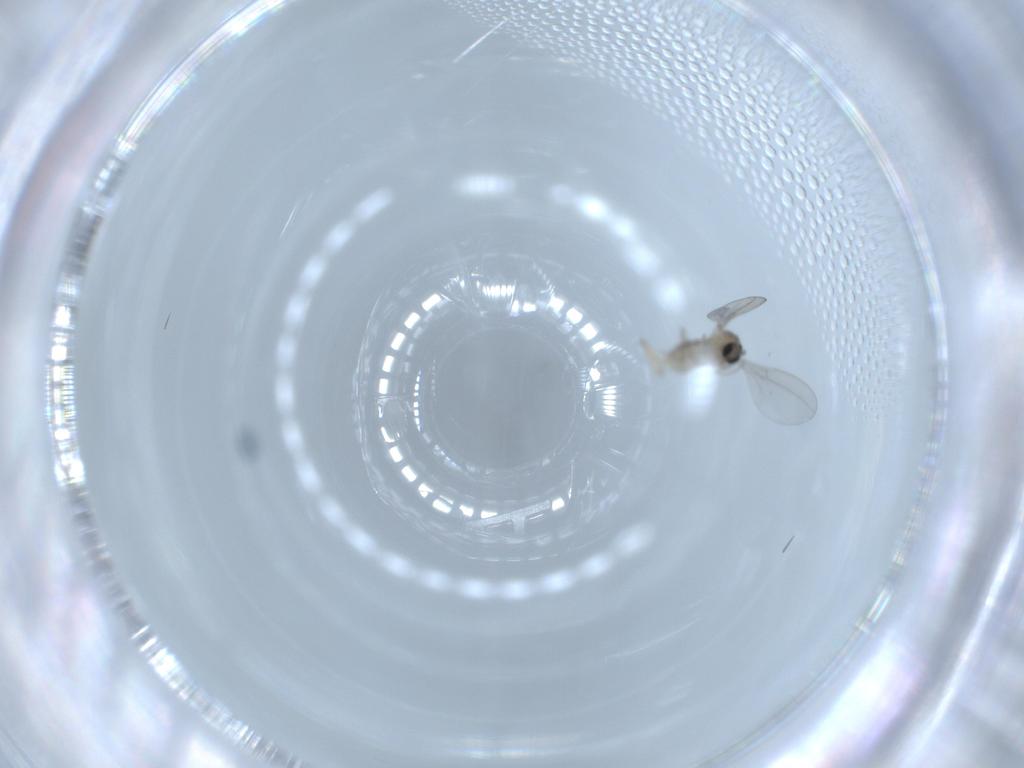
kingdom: Animalia
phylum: Arthropoda
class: Insecta
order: Diptera
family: Cecidomyiidae
